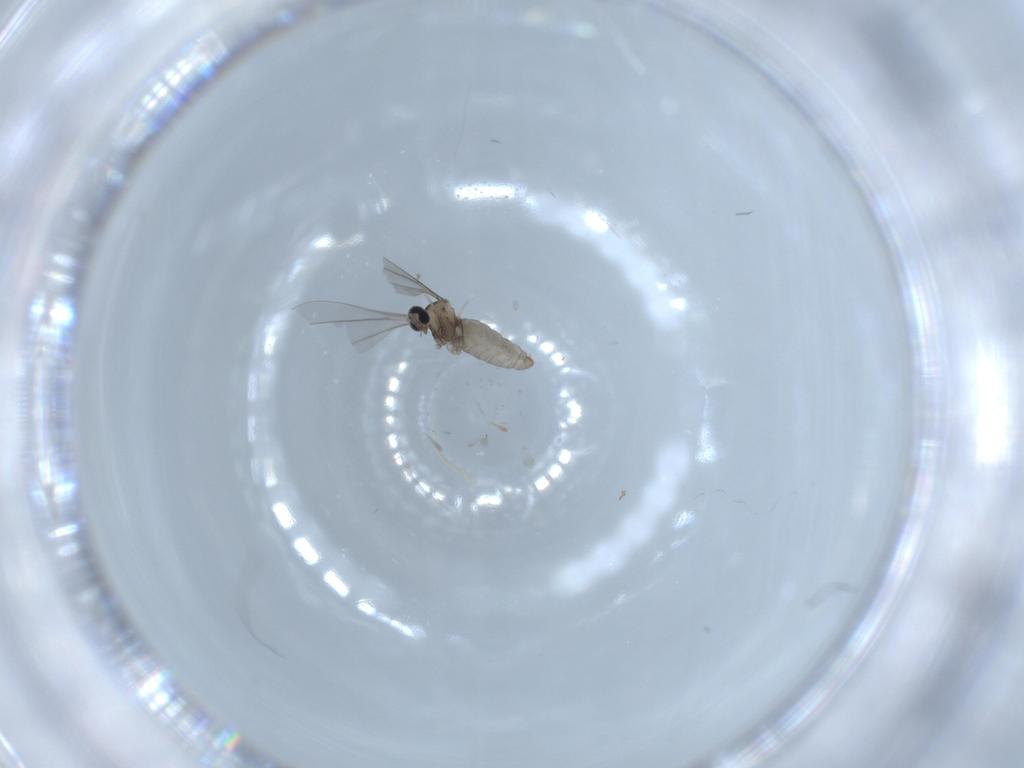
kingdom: Animalia
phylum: Arthropoda
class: Insecta
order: Diptera
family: Cecidomyiidae
